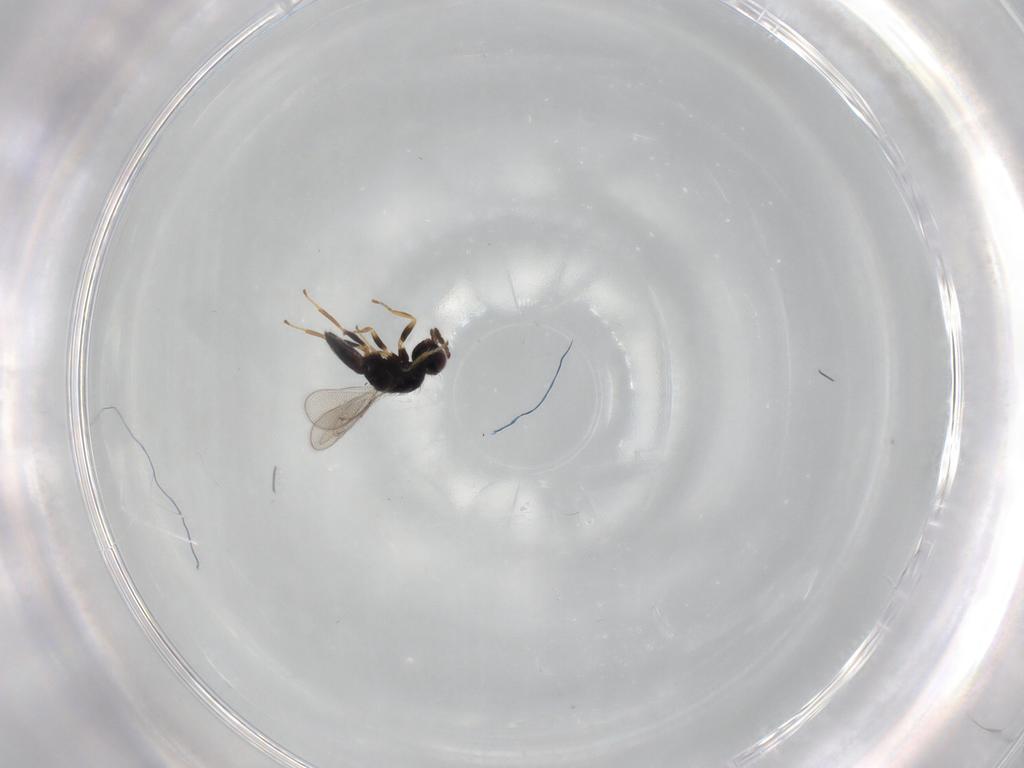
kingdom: Animalia
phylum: Arthropoda
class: Insecta
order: Hymenoptera
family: Eulophidae
